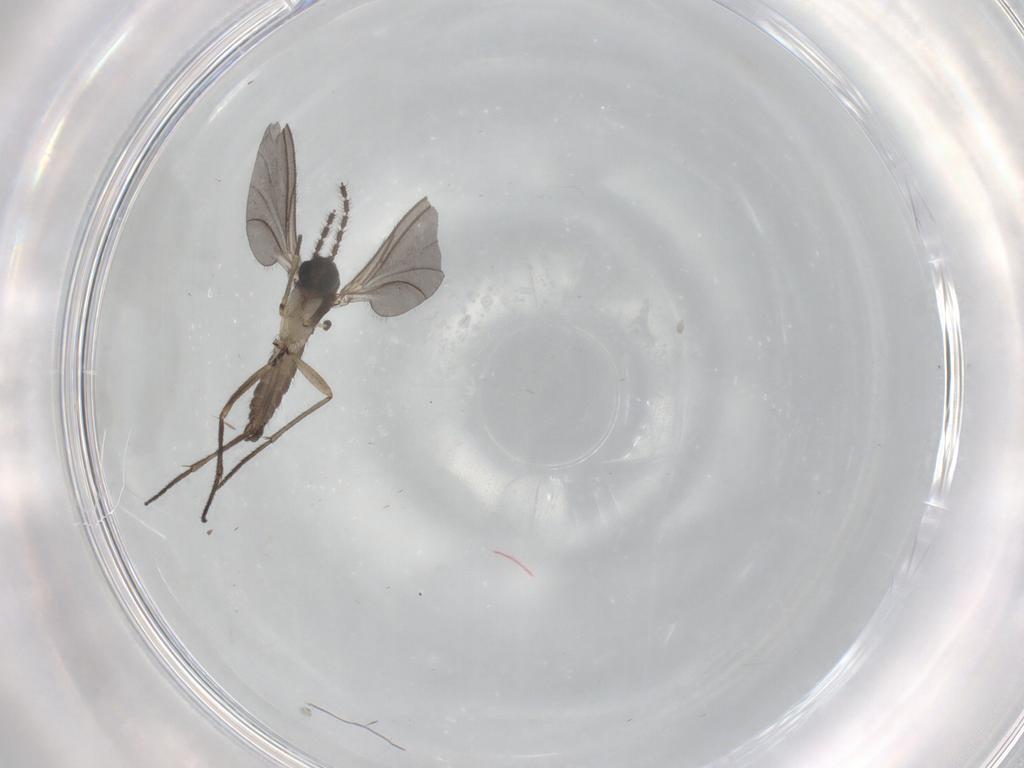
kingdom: Animalia
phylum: Arthropoda
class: Insecta
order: Diptera
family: Sciaridae
